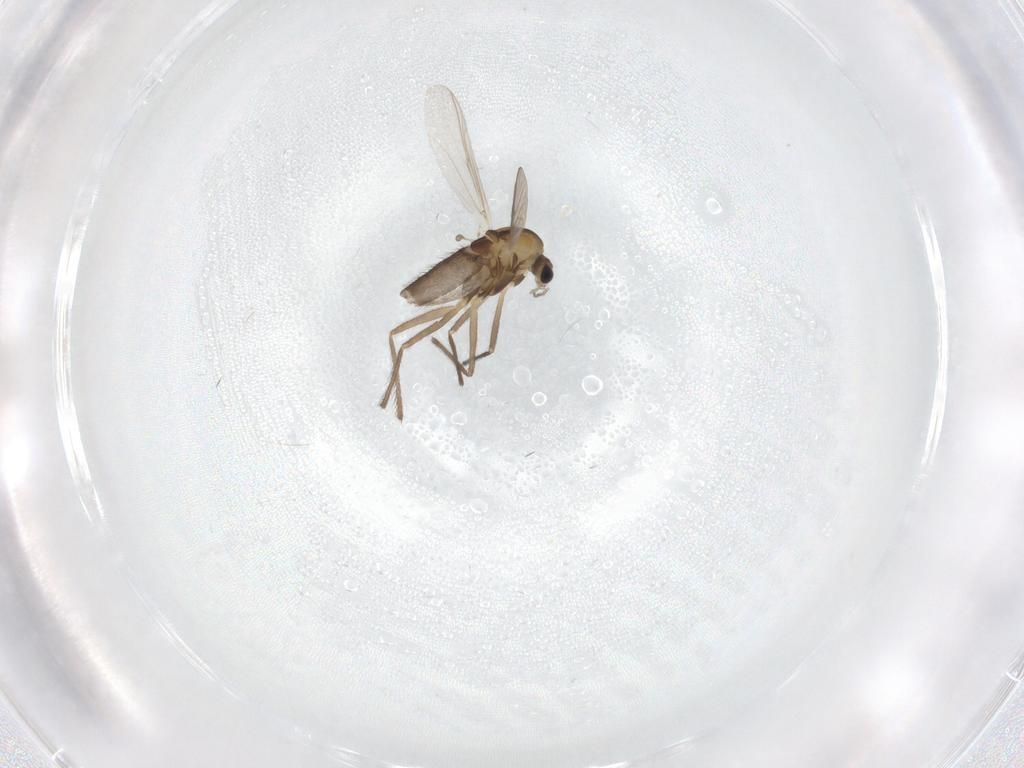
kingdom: Animalia
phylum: Arthropoda
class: Insecta
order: Diptera
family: Chironomidae
